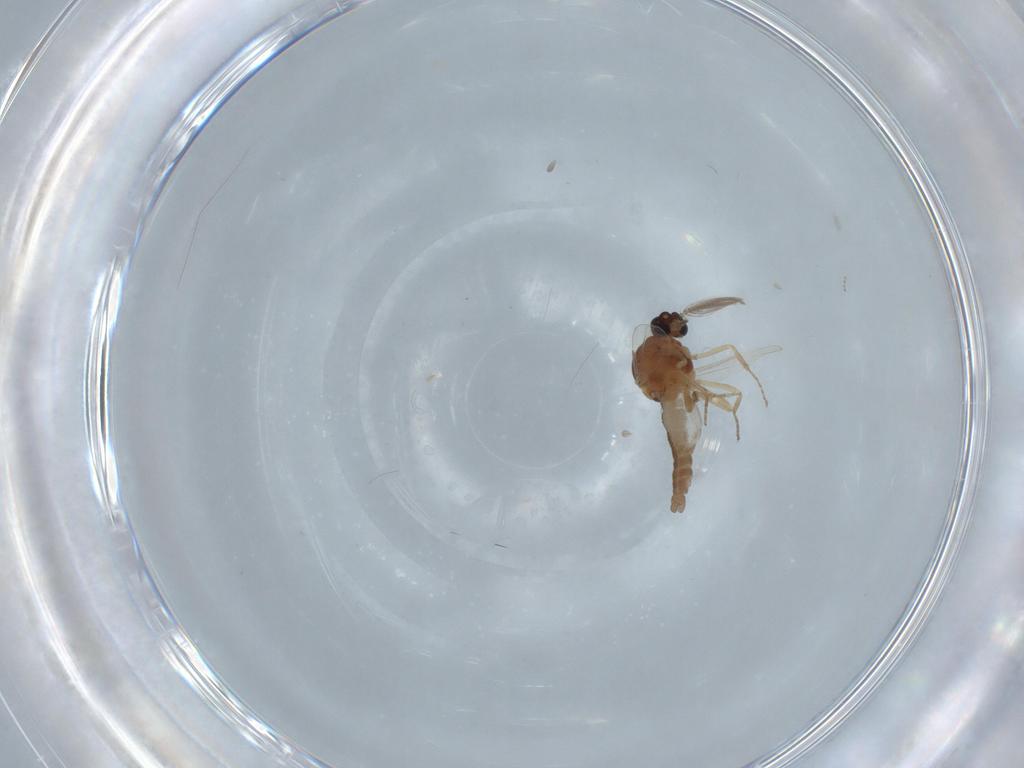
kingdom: Animalia
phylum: Arthropoda
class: Insecta
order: Diptera
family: Ceratopogonidae
